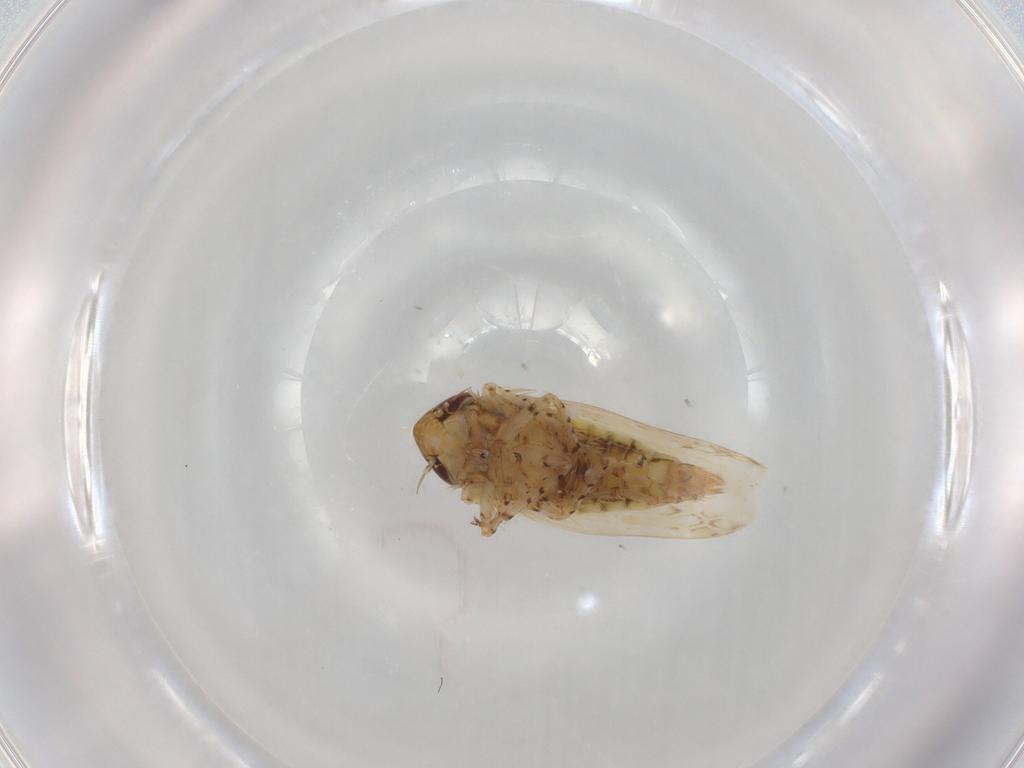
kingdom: Animalia
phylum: Arthropoda
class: Insecta
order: Hemiptera
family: Cicadellidae
